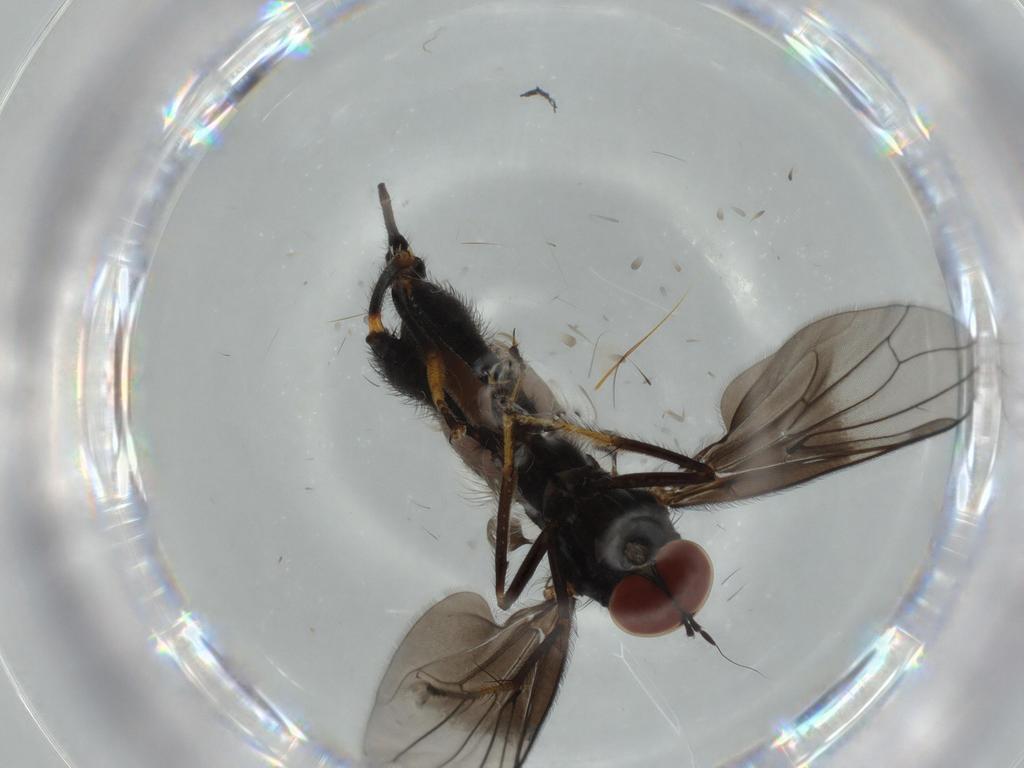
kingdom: Animalia
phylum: Arthropoda
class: Insecta
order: Diptera
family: Hybotidae
